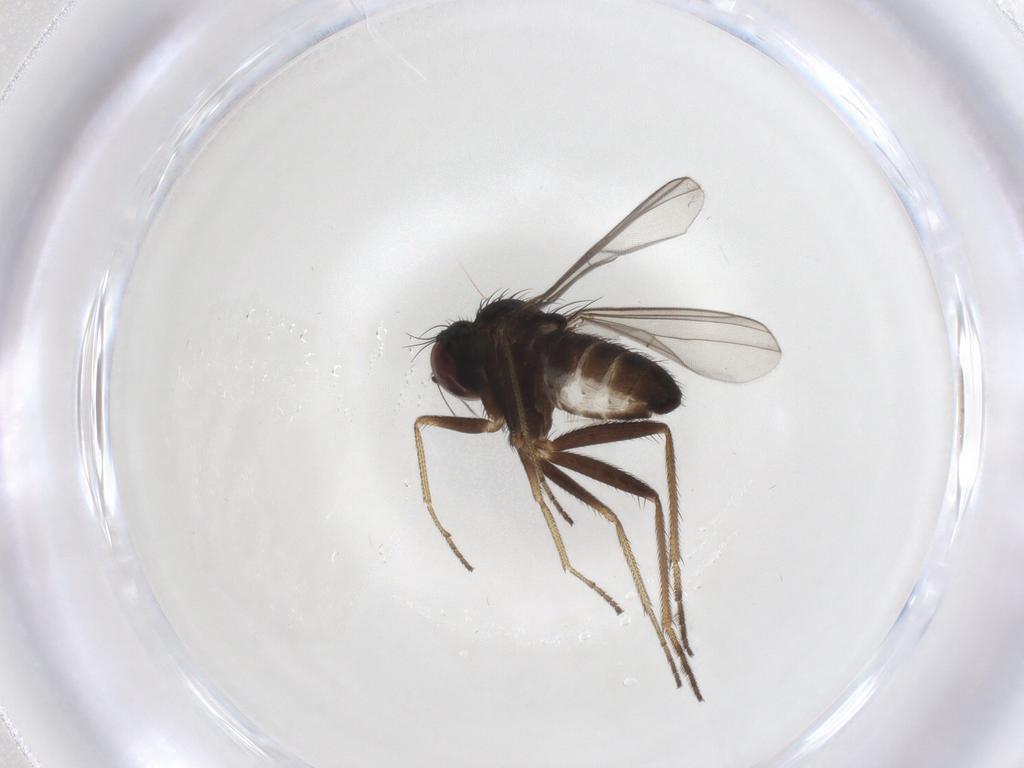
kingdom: Animalia
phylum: Arthropoda
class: Insecta
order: Diptera
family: Dolichopodidae
